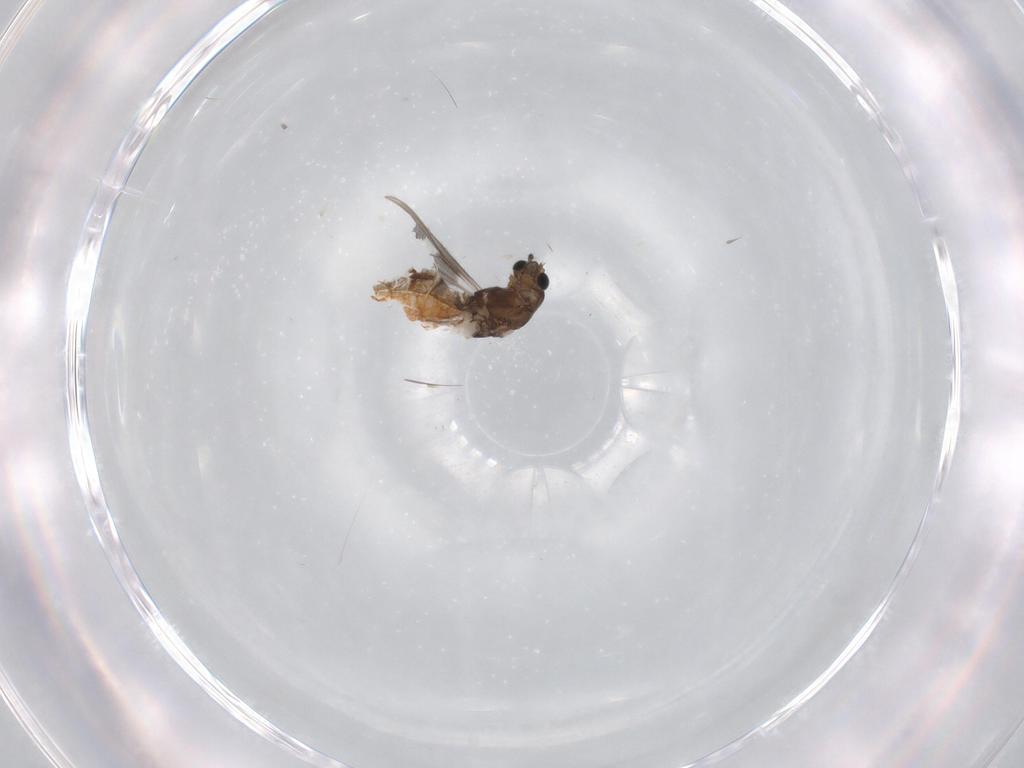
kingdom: Animalia
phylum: Arthropoda
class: Insecta
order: Diptera
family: Chironomidae
